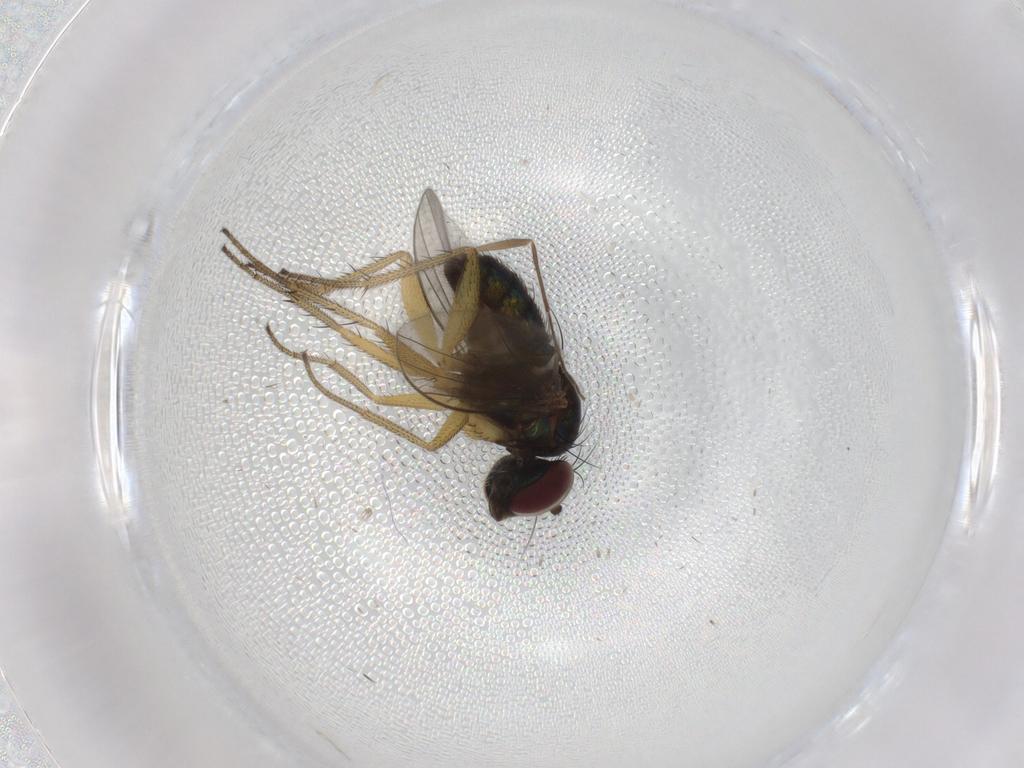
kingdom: Animalia
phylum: Arthropoda
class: Insecta
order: Diptera
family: Dolichopodidae
